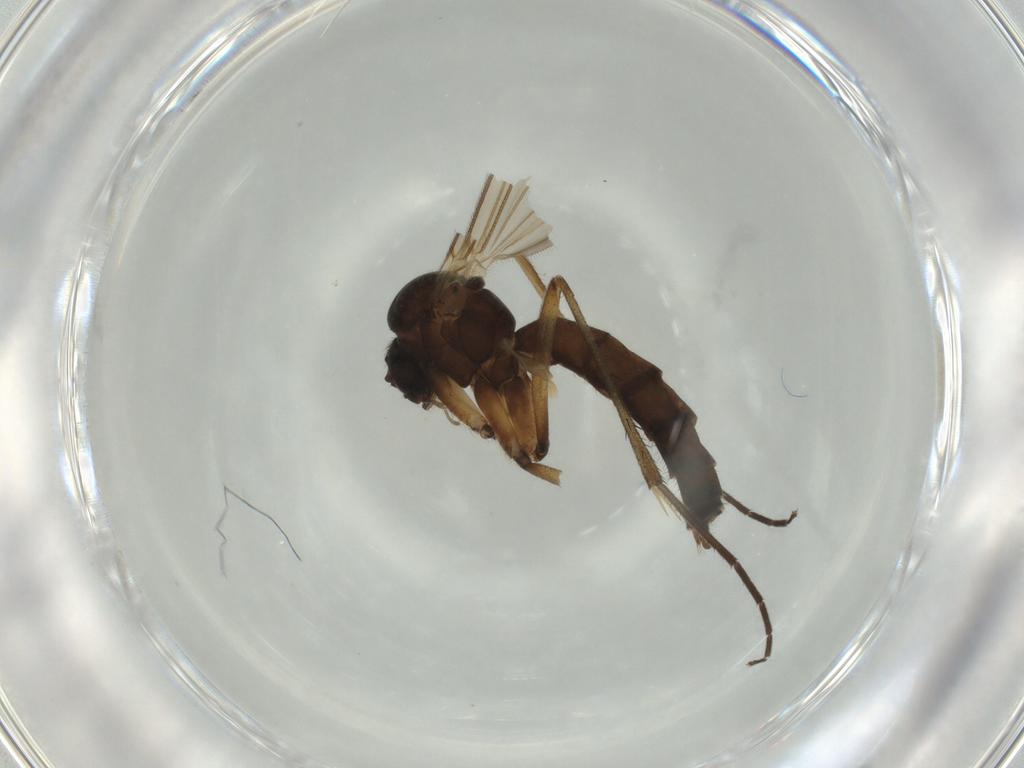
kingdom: Animalia
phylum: Arthropoda
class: Insecta
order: Diptera
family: Mycetophilidae
